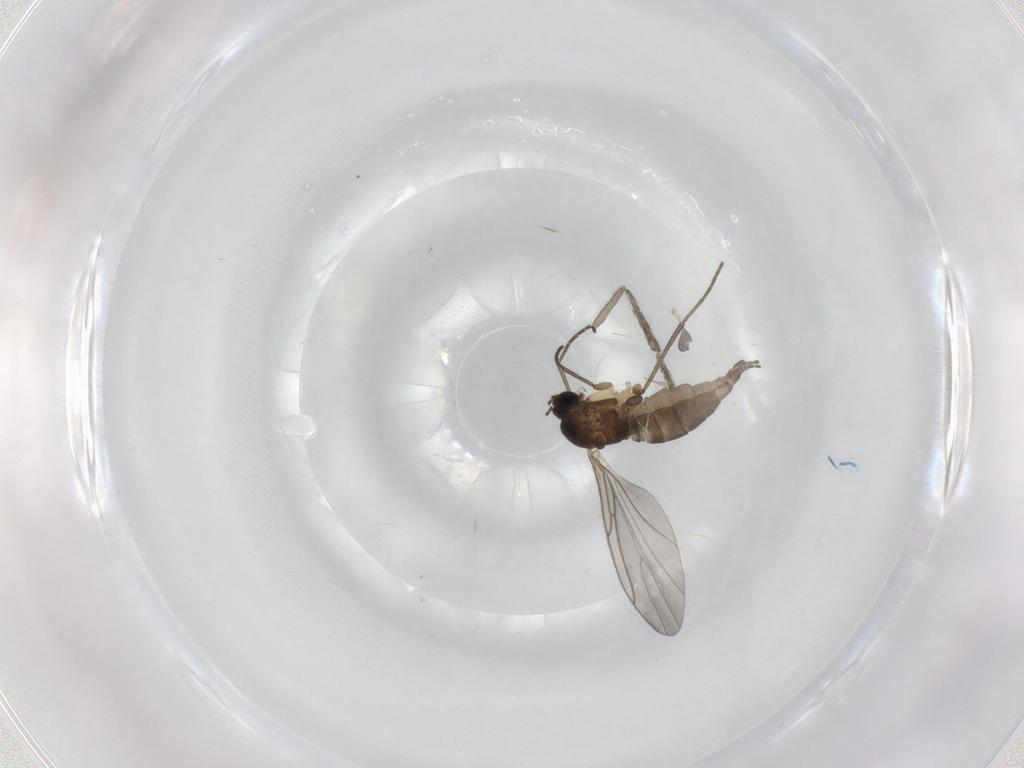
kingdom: Animalia
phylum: Arthropoda
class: Insecta
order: Diptera
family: Sciaridae
